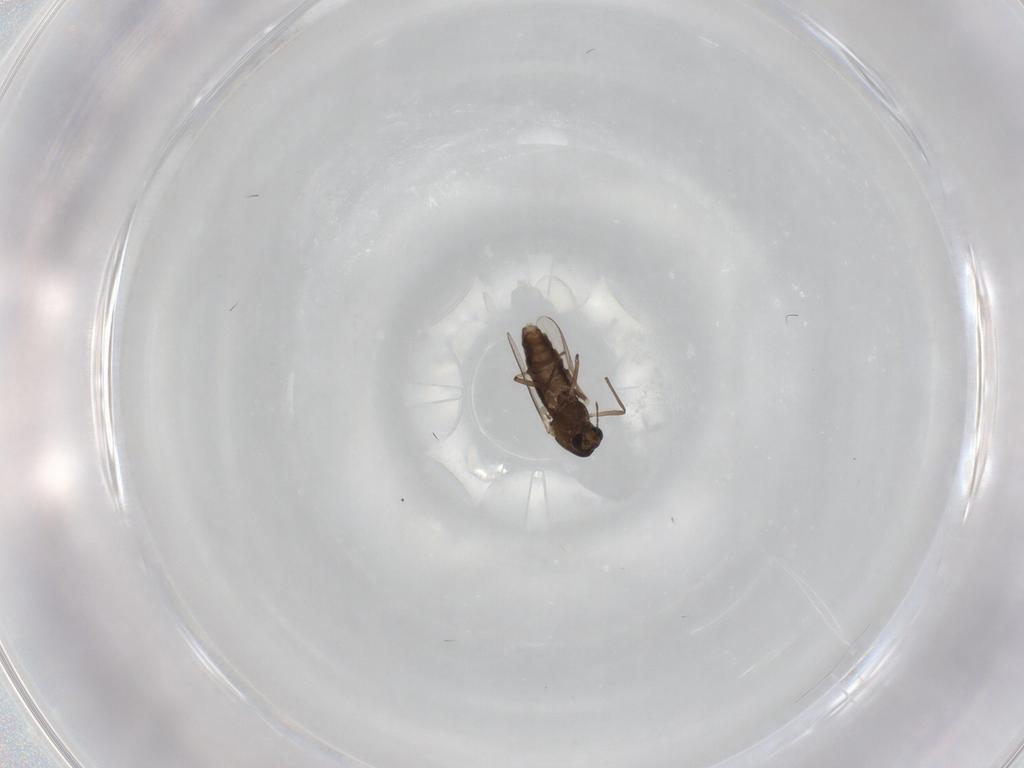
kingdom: Animalia
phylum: Arthropoda
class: Insecta
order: Diptera
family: Chironomidae
